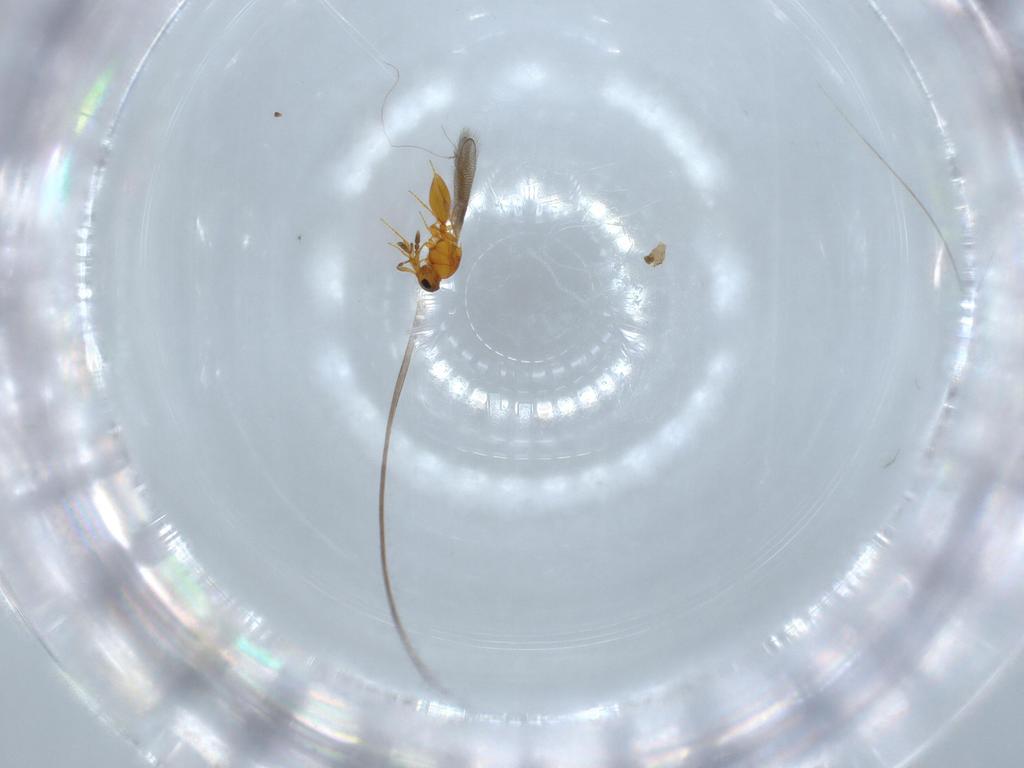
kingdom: Animalia
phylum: Arthropoda
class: Insecta
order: Hymenoptera
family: Platygastridae
